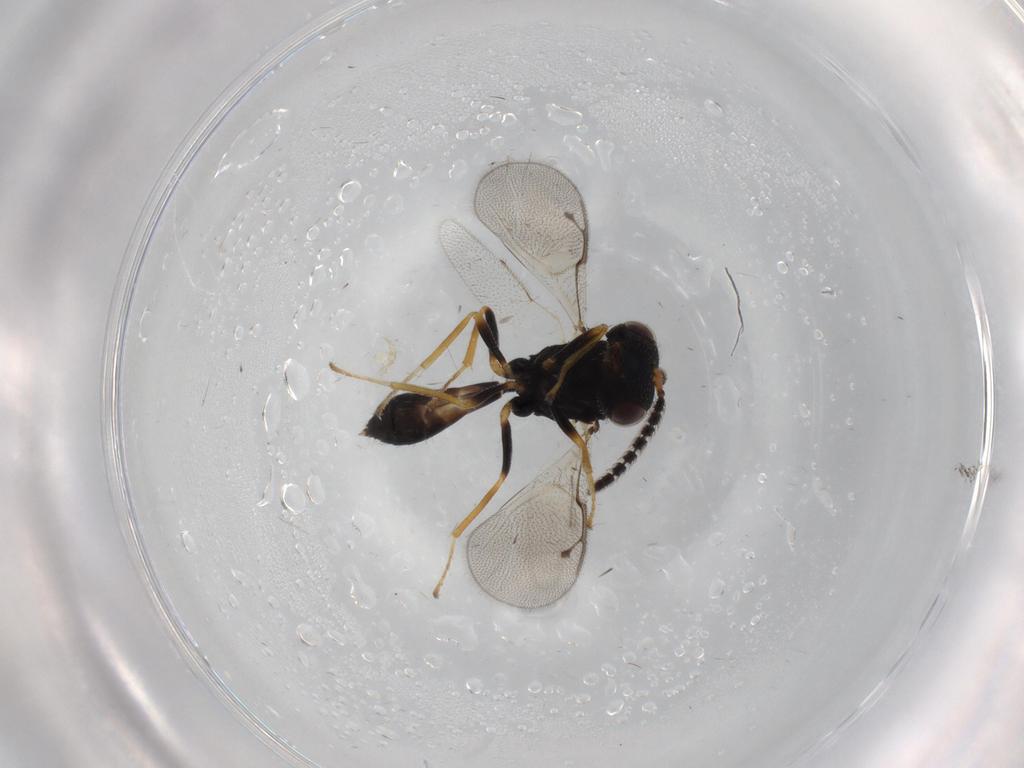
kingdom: Animalia
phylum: Arthropoda
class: Insecta
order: Hymenoptera
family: Pteromalidae
